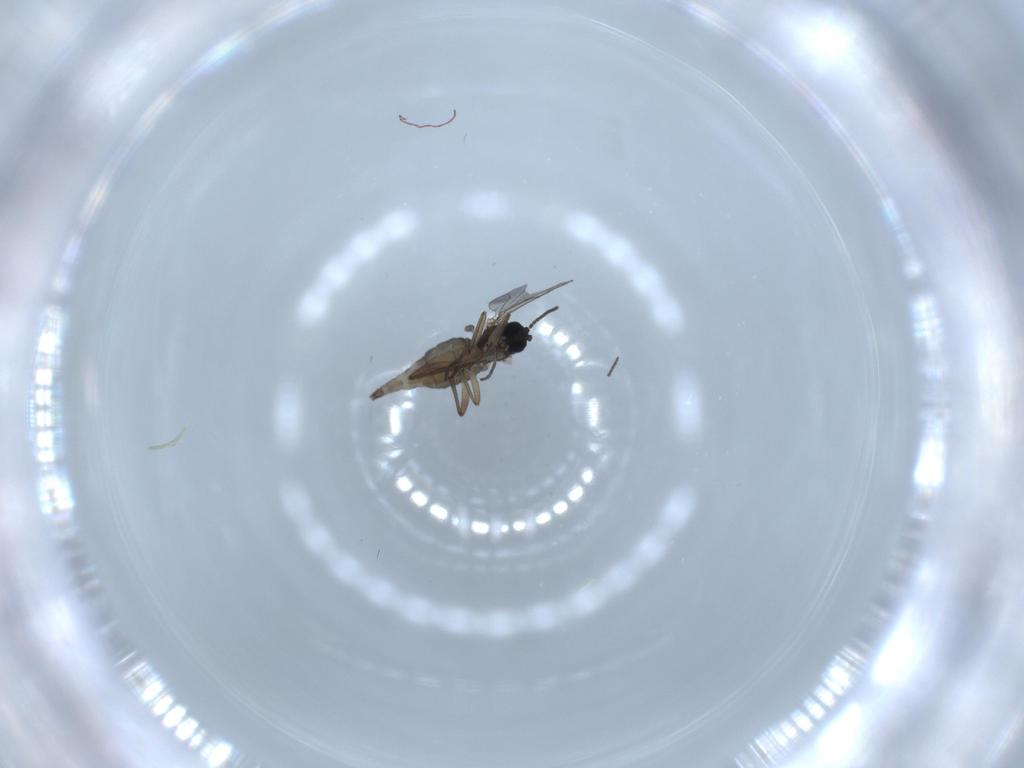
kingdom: Animalia
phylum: Arthropoda
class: Insecta
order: Diptera
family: Sciaridae
